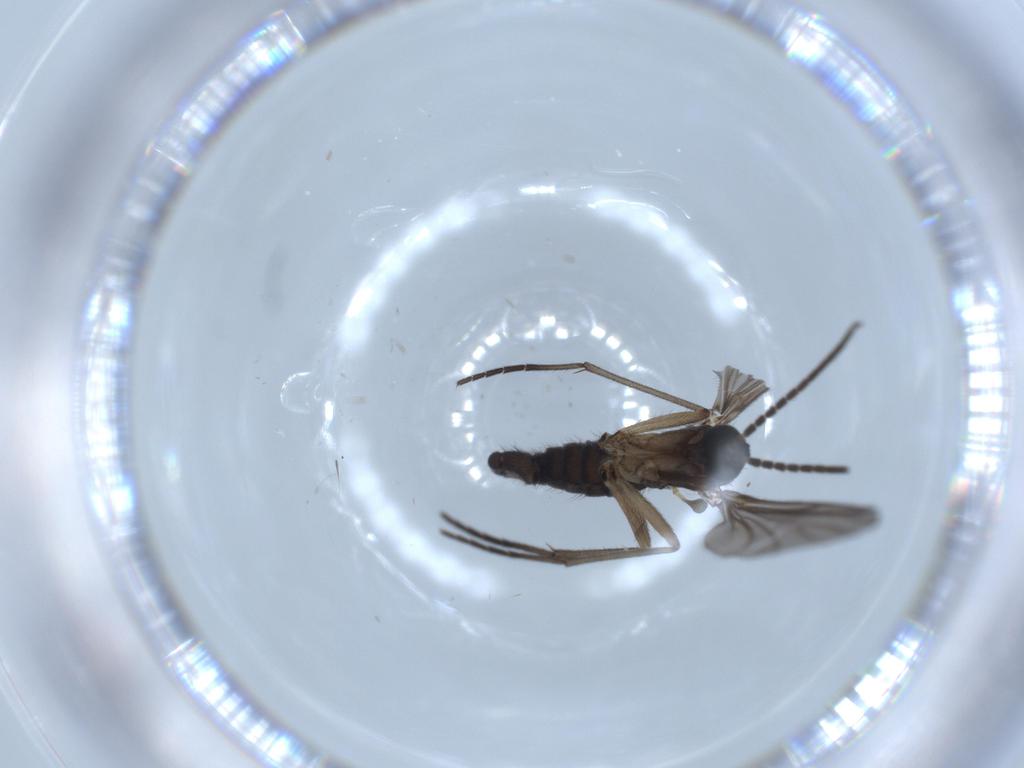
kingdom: Animalia
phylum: Arthropoda
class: Insecta
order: Diptera
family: Sciaridae
